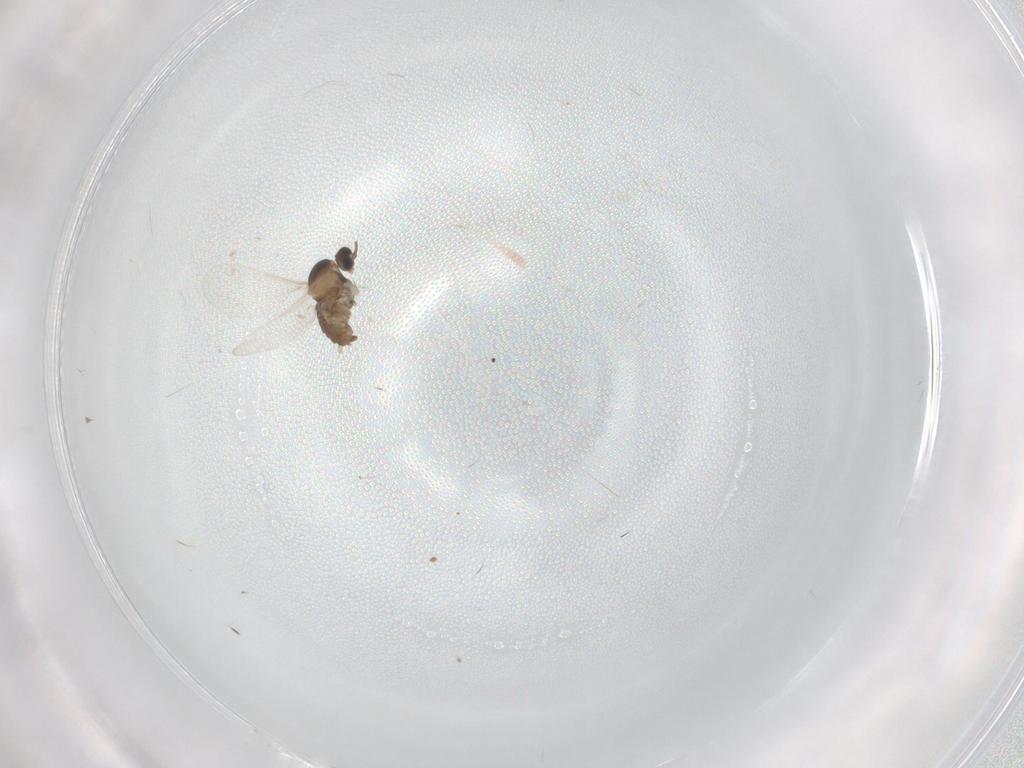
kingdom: Animalia
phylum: Arthropoda
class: Insecta
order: Diptera
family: Cecidomyiidae
